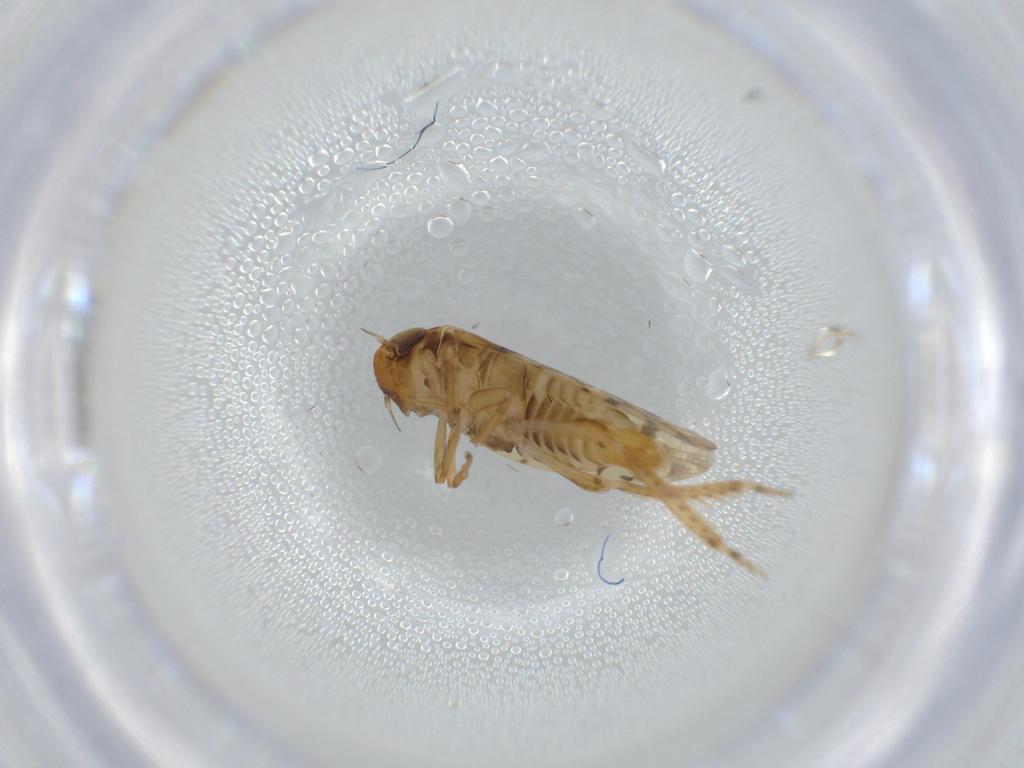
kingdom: Animalia
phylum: Arthropoda
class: Insecta
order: Hemiptera
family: Cicadellidae
